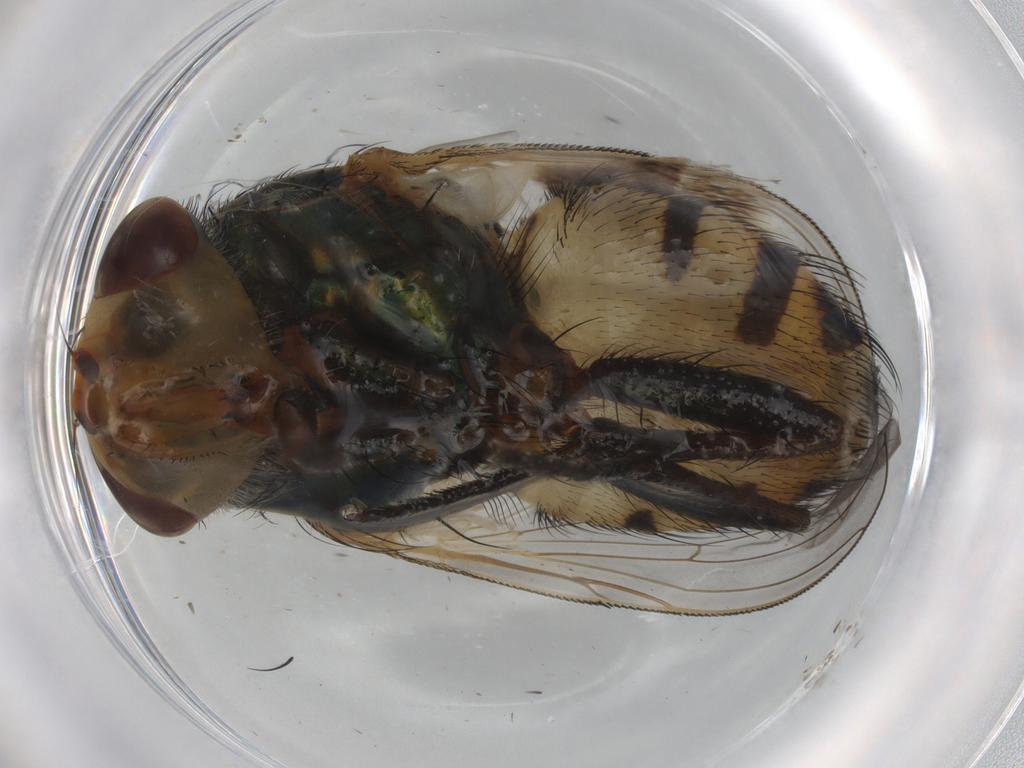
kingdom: Animalia
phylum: Arthropoda
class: Insecta
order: Diptera
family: Calliphoridae
